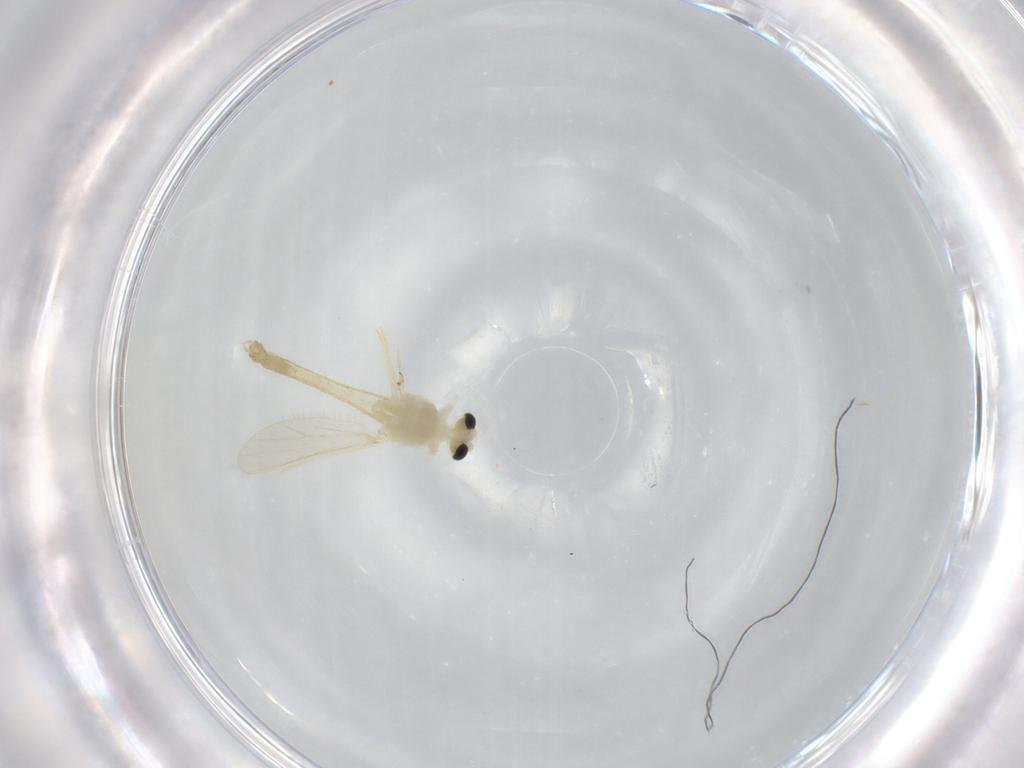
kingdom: Animalia
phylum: Arthropoda
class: Insecta
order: Diptera
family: Chironomidae
